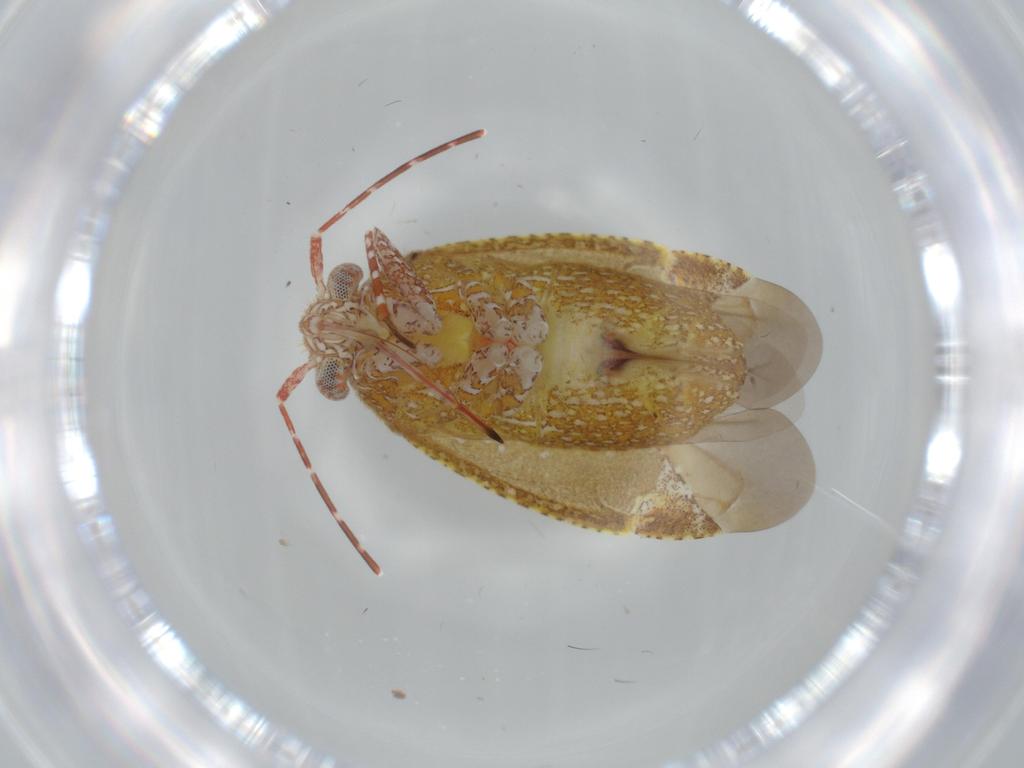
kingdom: Animalia
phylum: Arthropoda
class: Insecta
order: Hemiptera
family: Miridae
